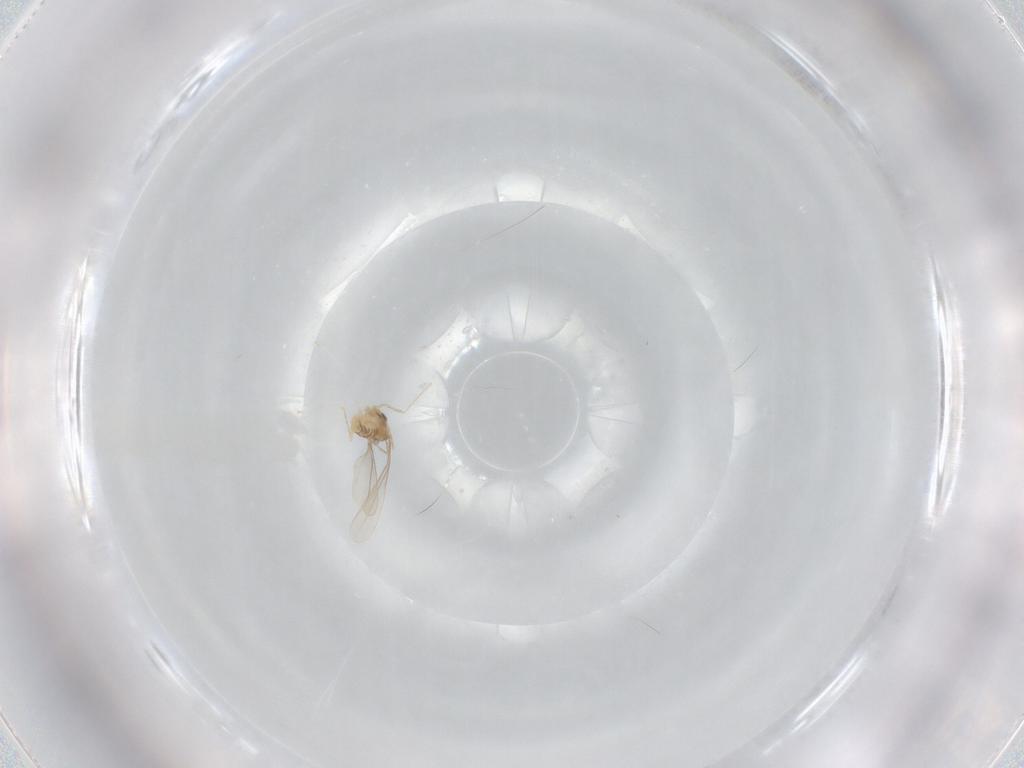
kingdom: Animalia
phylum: Arthropoda
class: Insecta
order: Diptera
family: Cecidomyiidae
